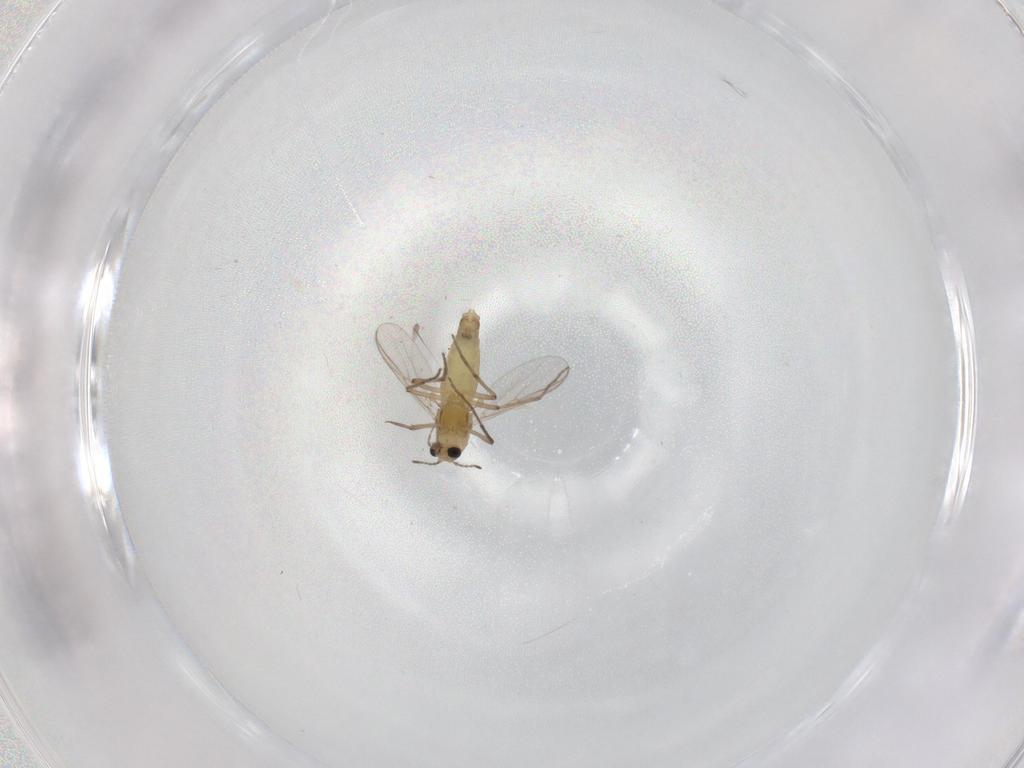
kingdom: Animalia
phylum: Arthropoda
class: Insecta
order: Diptera
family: Chironomidae
